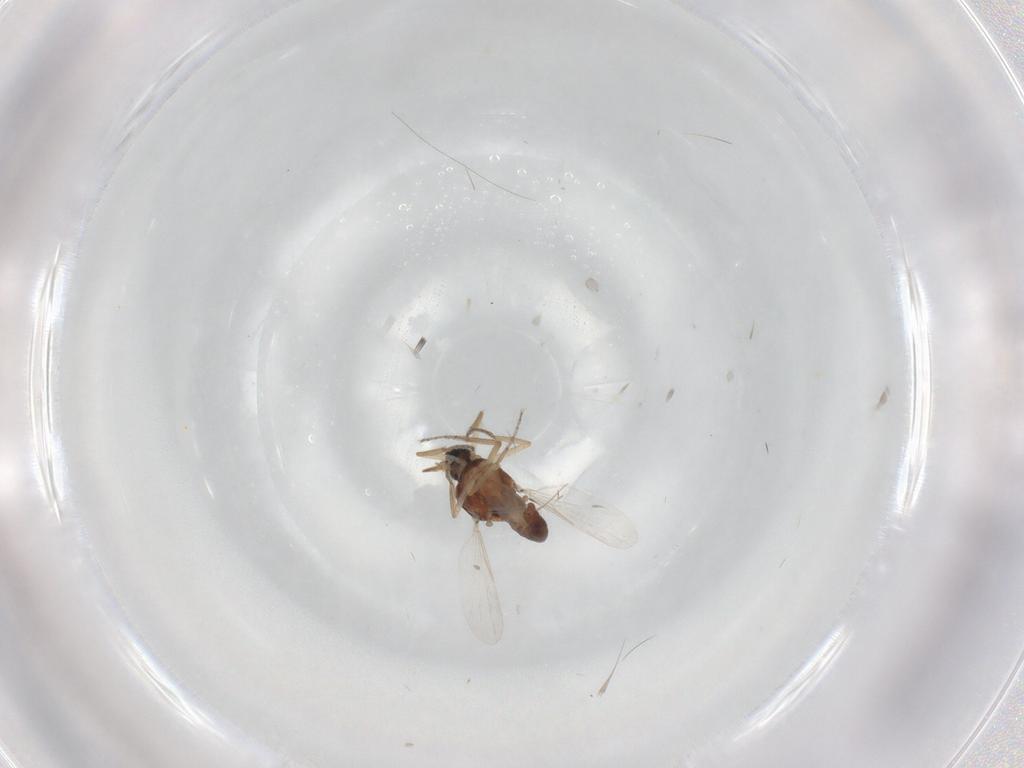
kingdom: Animalia
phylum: Arthropoda
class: Insecta
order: Diptera
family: Ceratopogonidae
